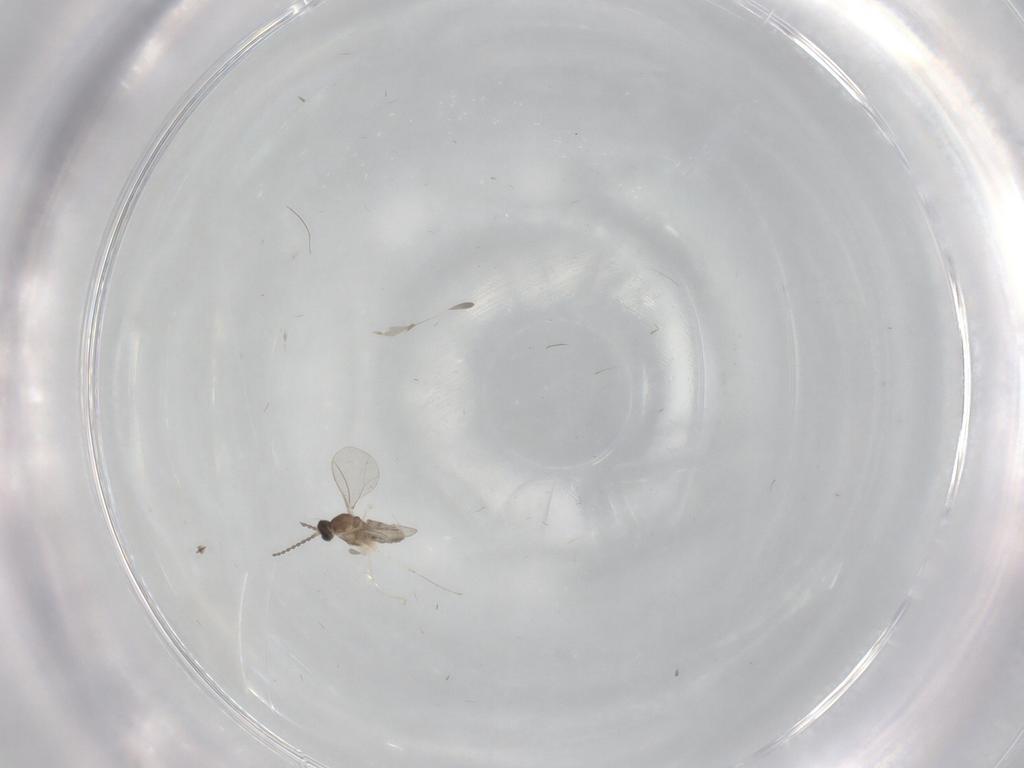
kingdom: Animalia
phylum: Arthropoda
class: Insecta
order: Diptera
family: Cecidomyiidae
